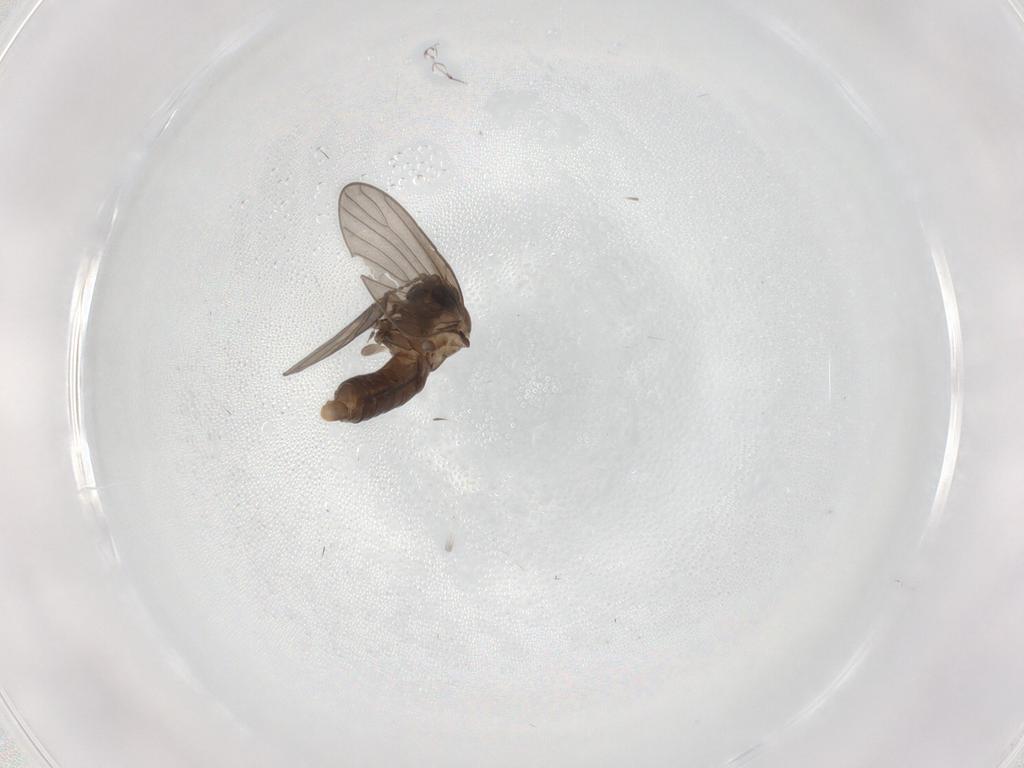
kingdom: Animalia
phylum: Arthropoda
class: Insecta
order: Diptera
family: Psychodidae
